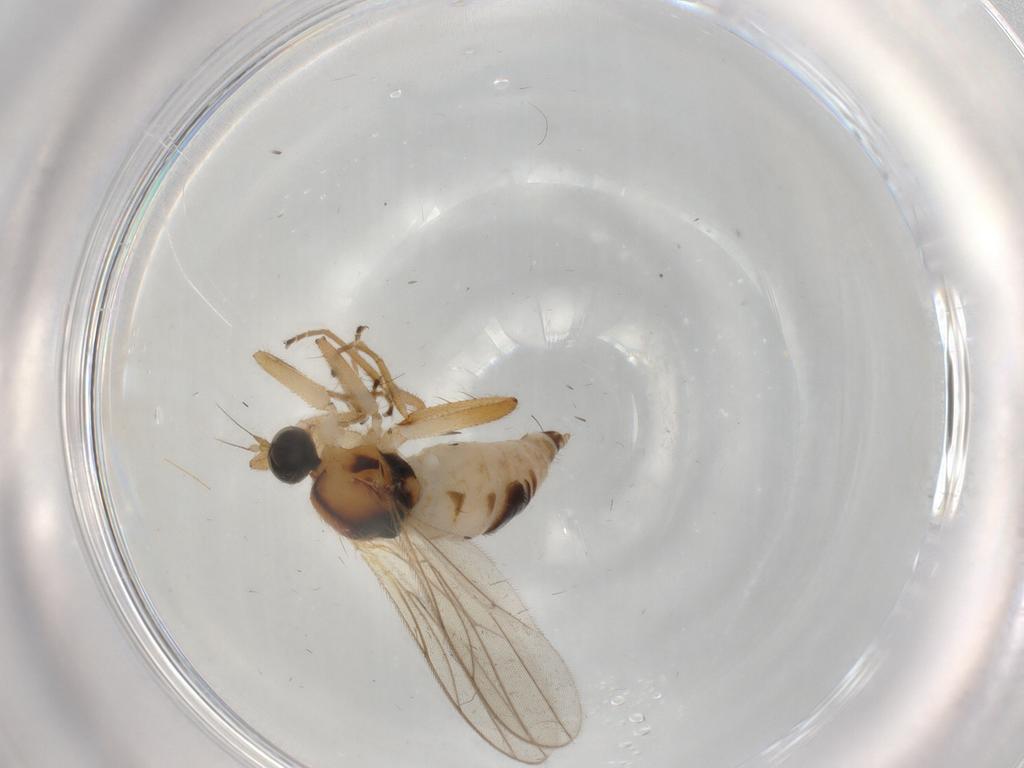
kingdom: Animalia
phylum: Arthropoda
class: Insecta
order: Diptera
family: Hybotidae
